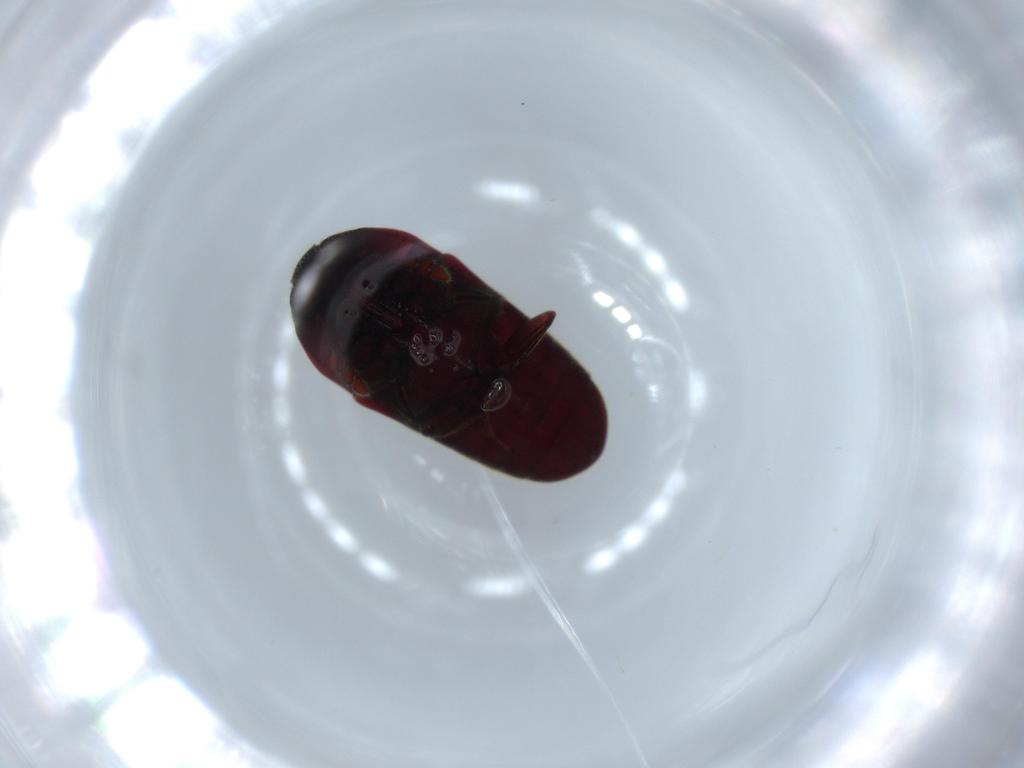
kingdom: Animalia
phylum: Arthropoda
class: Insecta
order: Coleoptera
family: Throscidae
